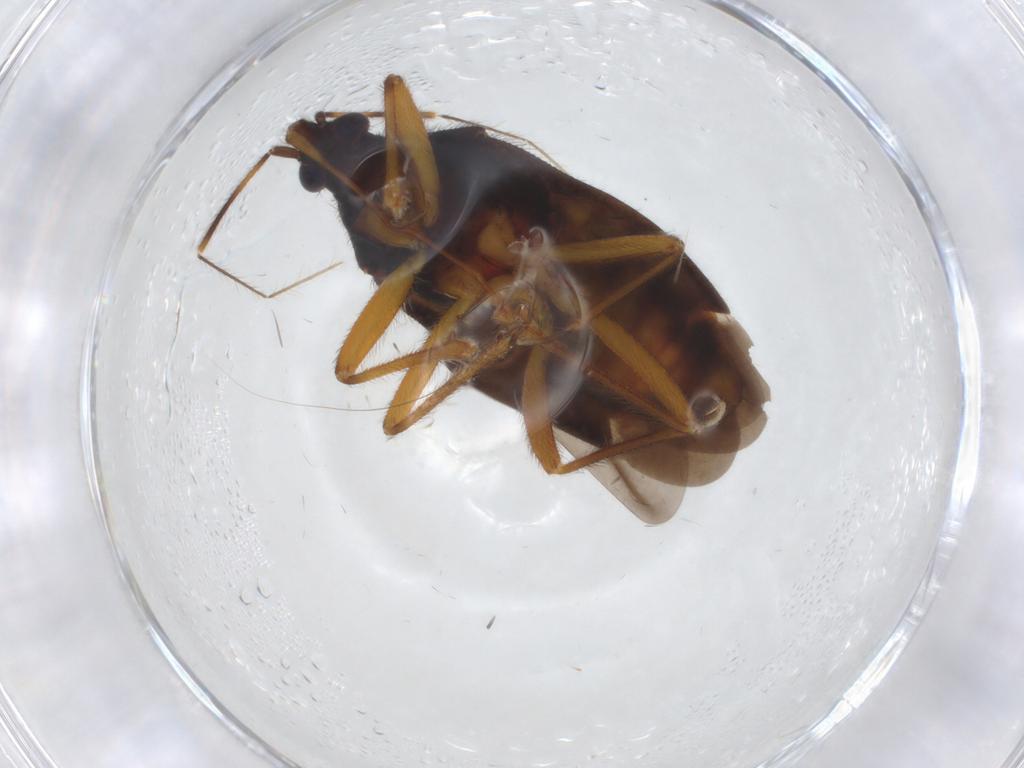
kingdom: Animalia
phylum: Arthropoda
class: Insecta
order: Hemiptera
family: Anthocoridae
